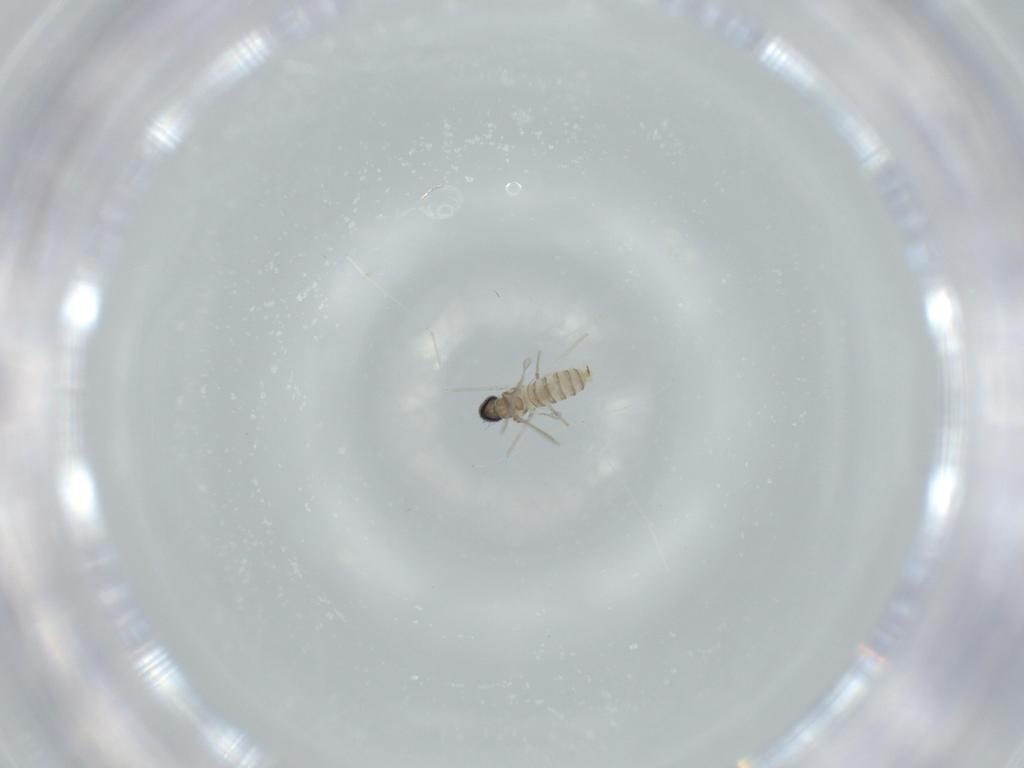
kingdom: Animalia
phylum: Arthropoda
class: Insecta
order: Diptera
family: Cecidomyiidae
